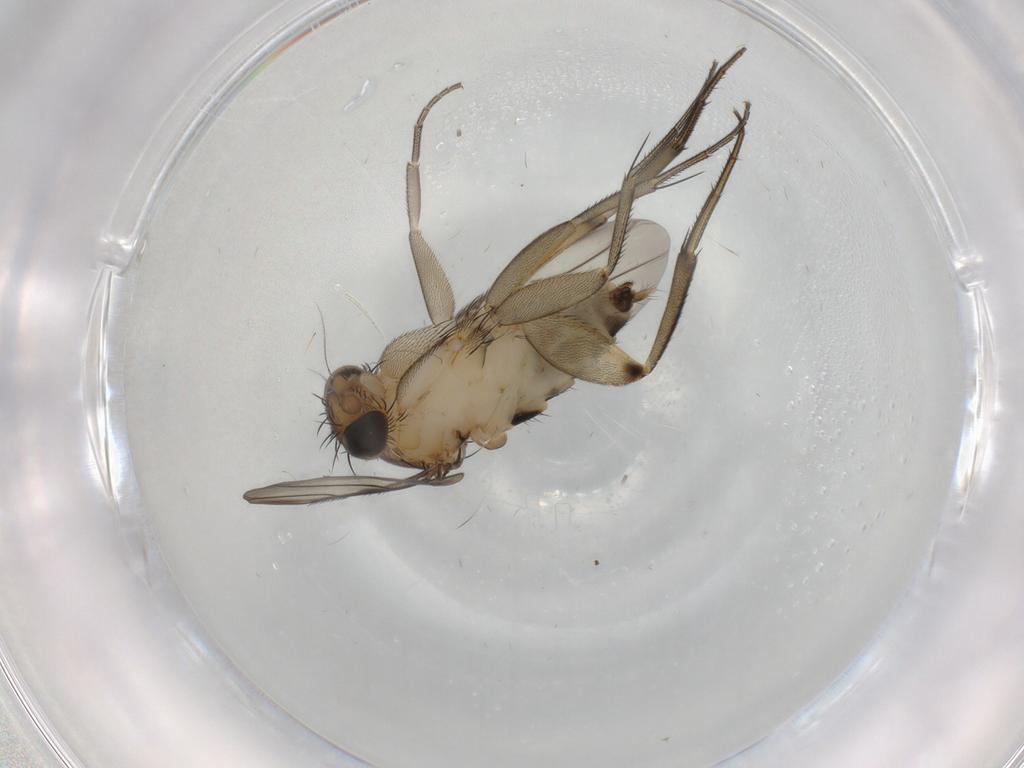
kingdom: Animalia
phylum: Arthropoda
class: Insecta
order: Diptera
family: Phoridae
